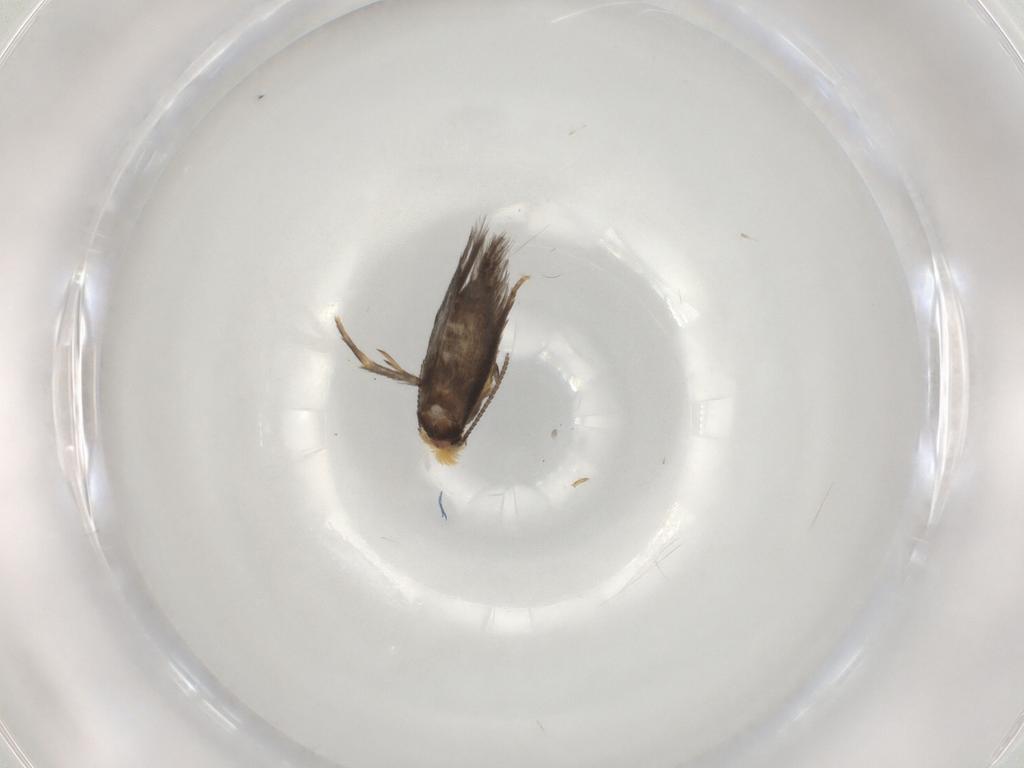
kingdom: Animalia
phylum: Arthropoda
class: Insecta
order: Lepidoptera
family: Nepticulidae
